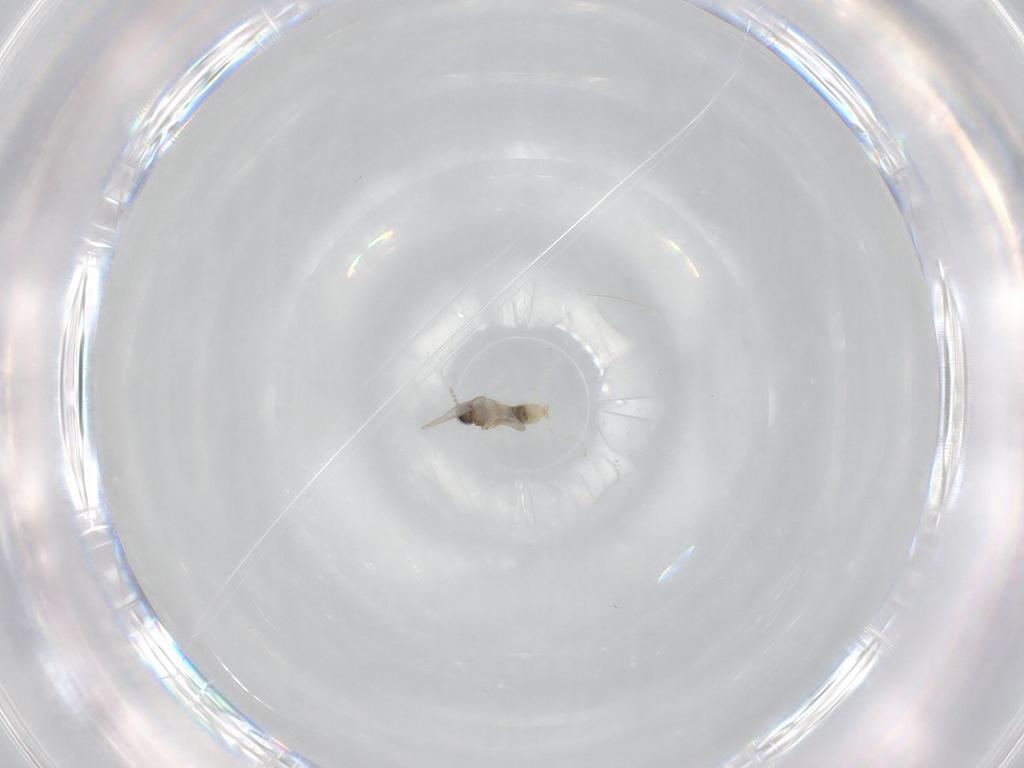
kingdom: Animalia
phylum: Arthropoda
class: Insecta
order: Diptera
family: Cecidomyiidae
